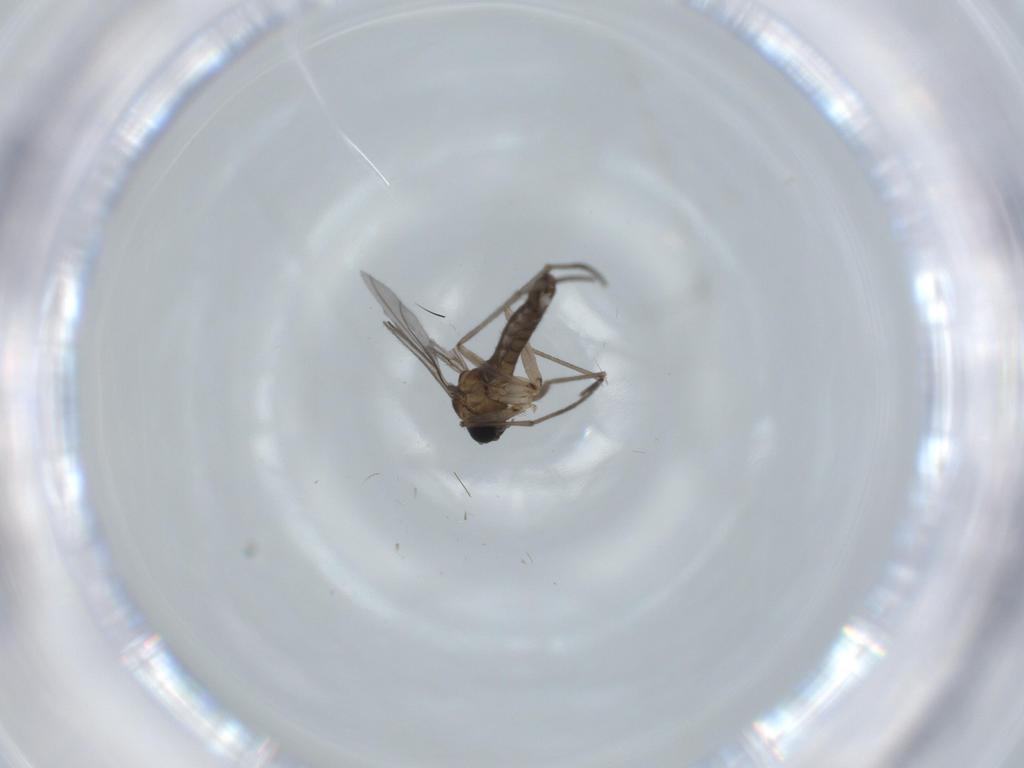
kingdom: Animalia
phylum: Arthropoda
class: Insecta
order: Diptera
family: Sciaridae
